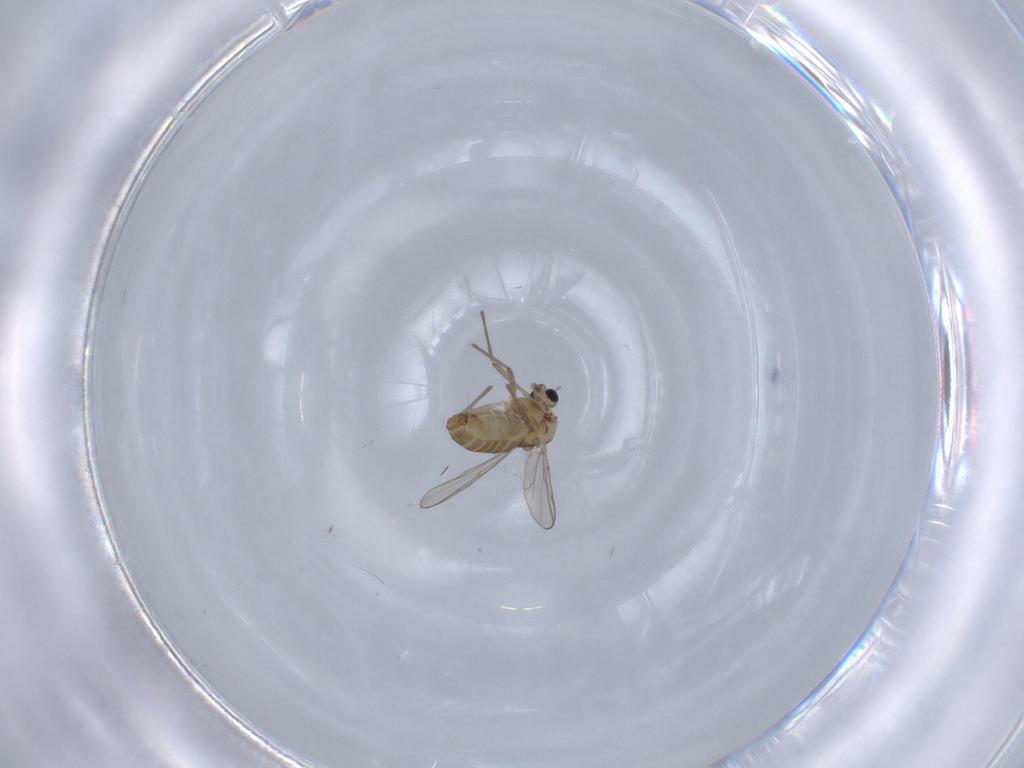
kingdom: Animalia
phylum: Arthropoda
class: Insecta
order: Diptera
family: Chironomidae
